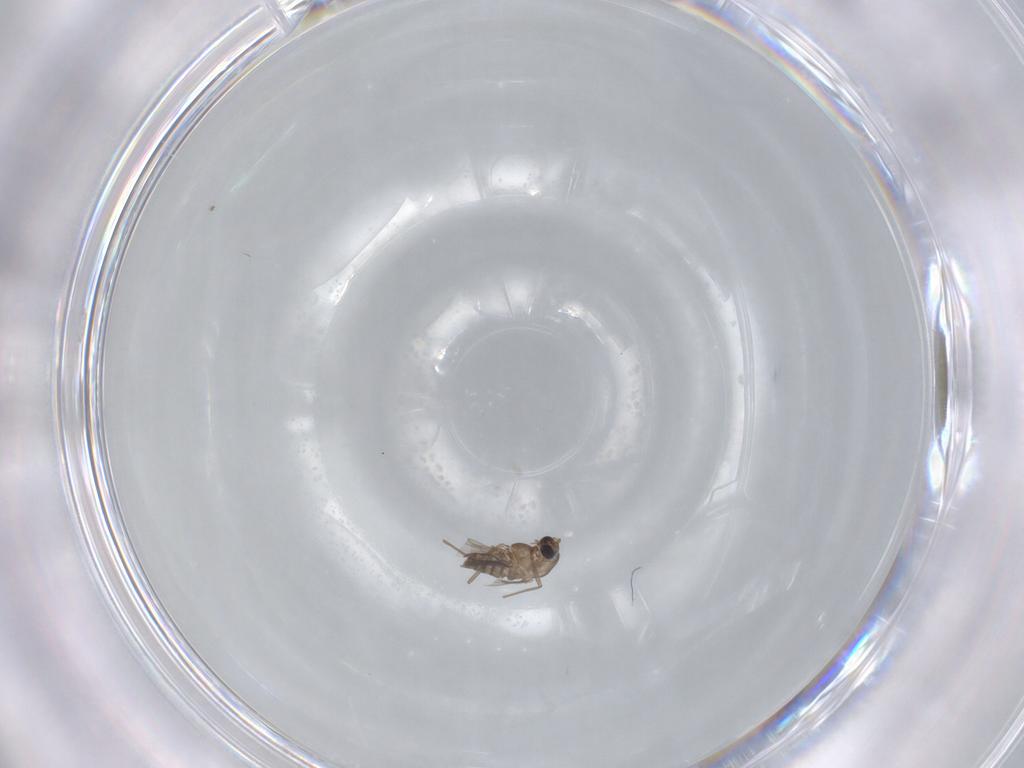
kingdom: Animalia
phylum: Arthropoda
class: Insecta
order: Diptera
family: Chironomidae
